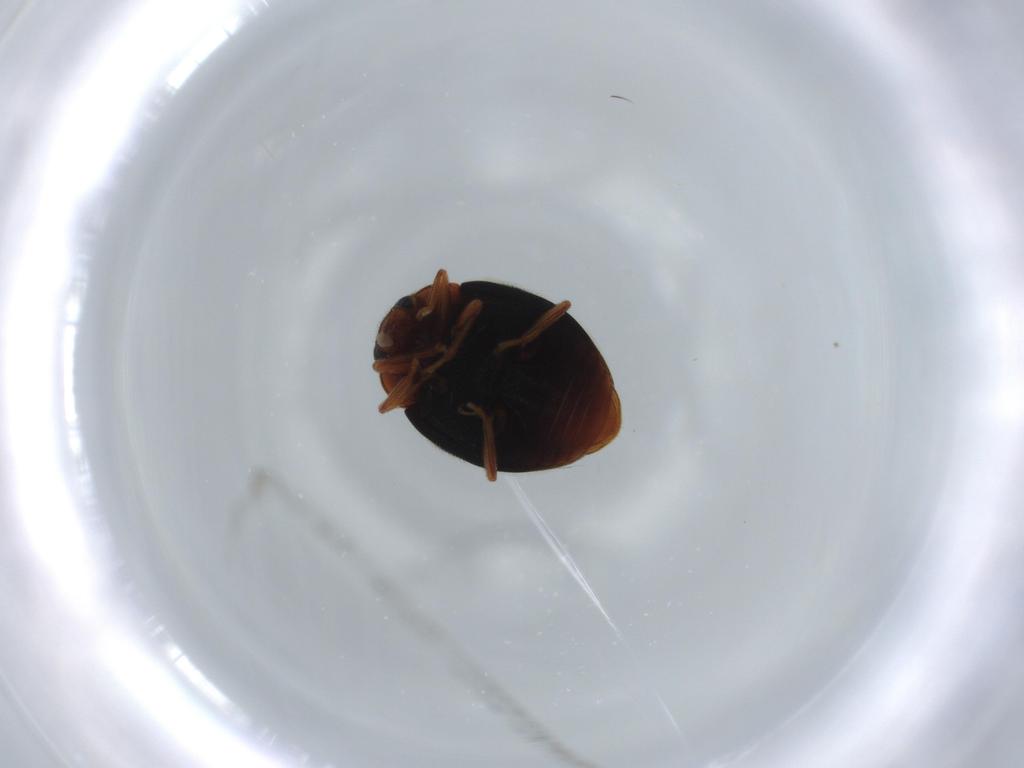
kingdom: Animalia
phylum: Arthropoda
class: Insecta
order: Coleoptera
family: Coccinellidae
